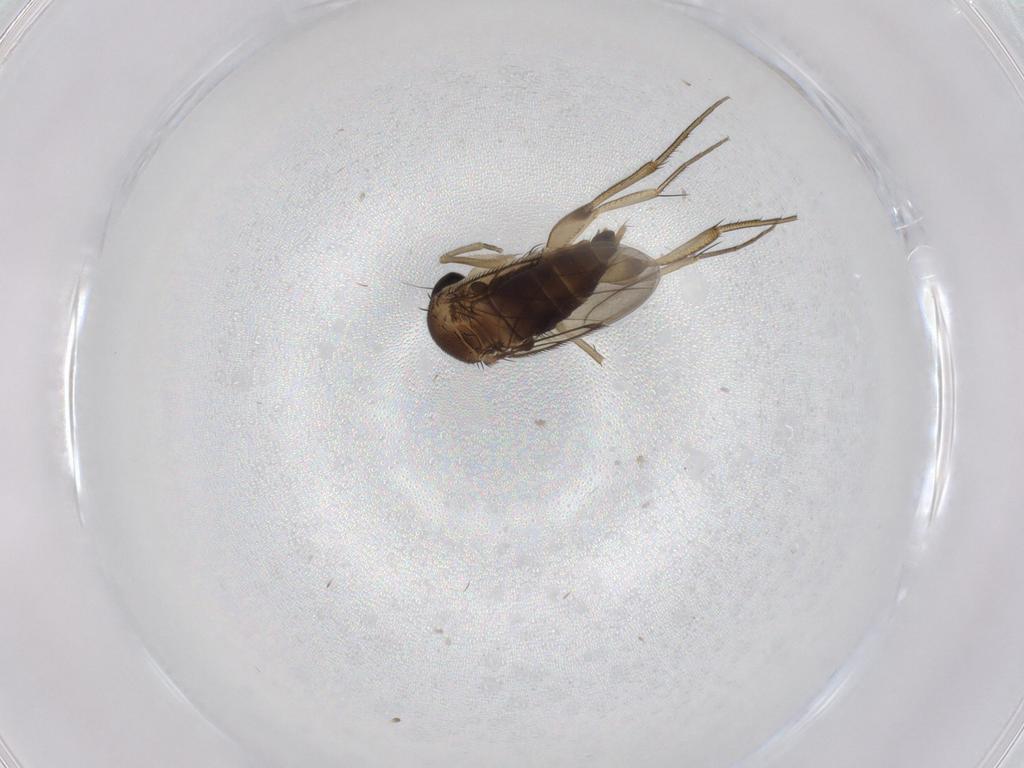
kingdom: Animalia
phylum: Arthropoda
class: Insecta
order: Diptera
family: Phoridae
